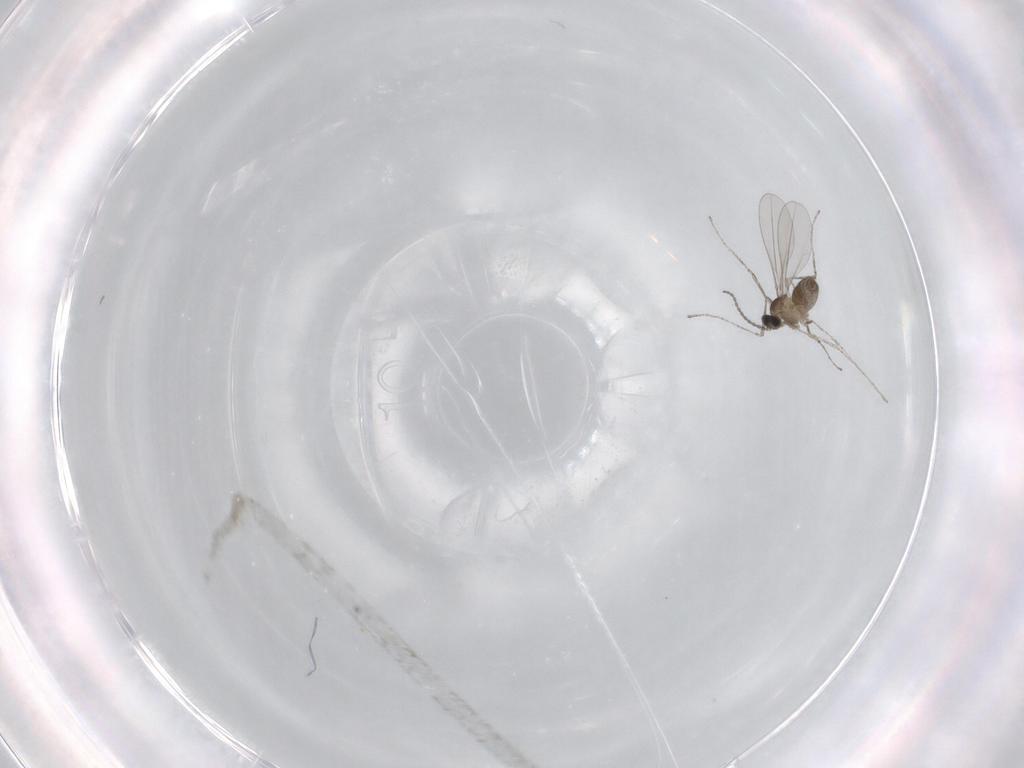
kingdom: Animalia
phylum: Arthropoda
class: Insecta
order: Diptera
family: Cecidomyiidae
